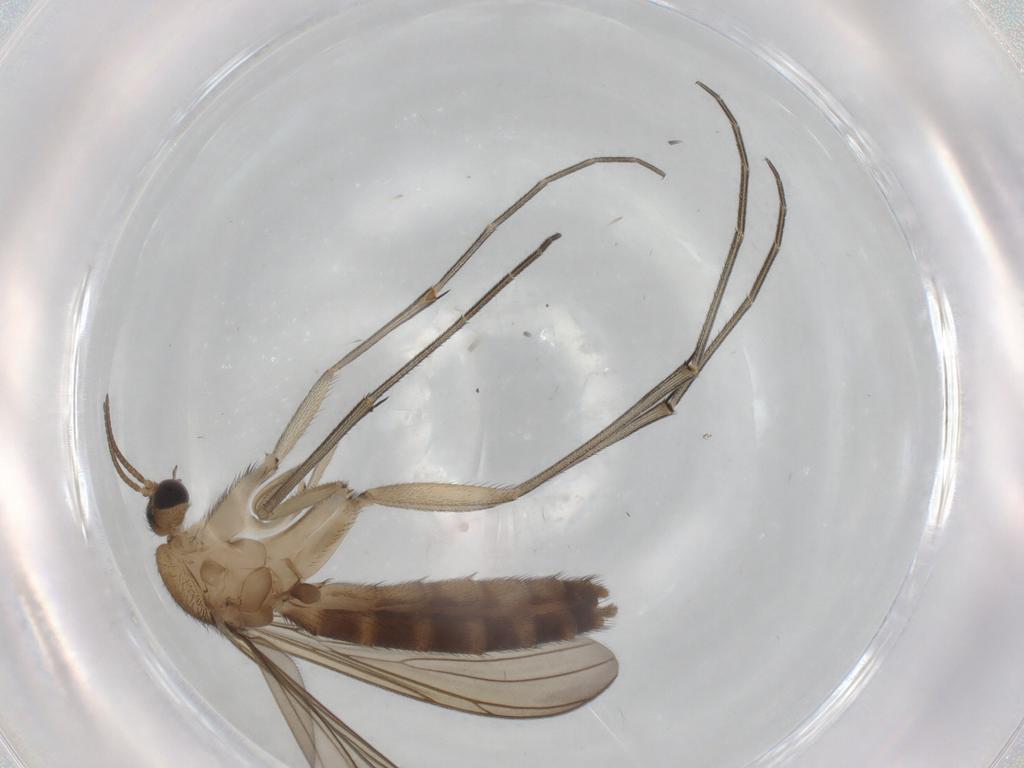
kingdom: Animalia
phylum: Arthropoda
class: Insecta
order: Diptera
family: Keroplatidae
